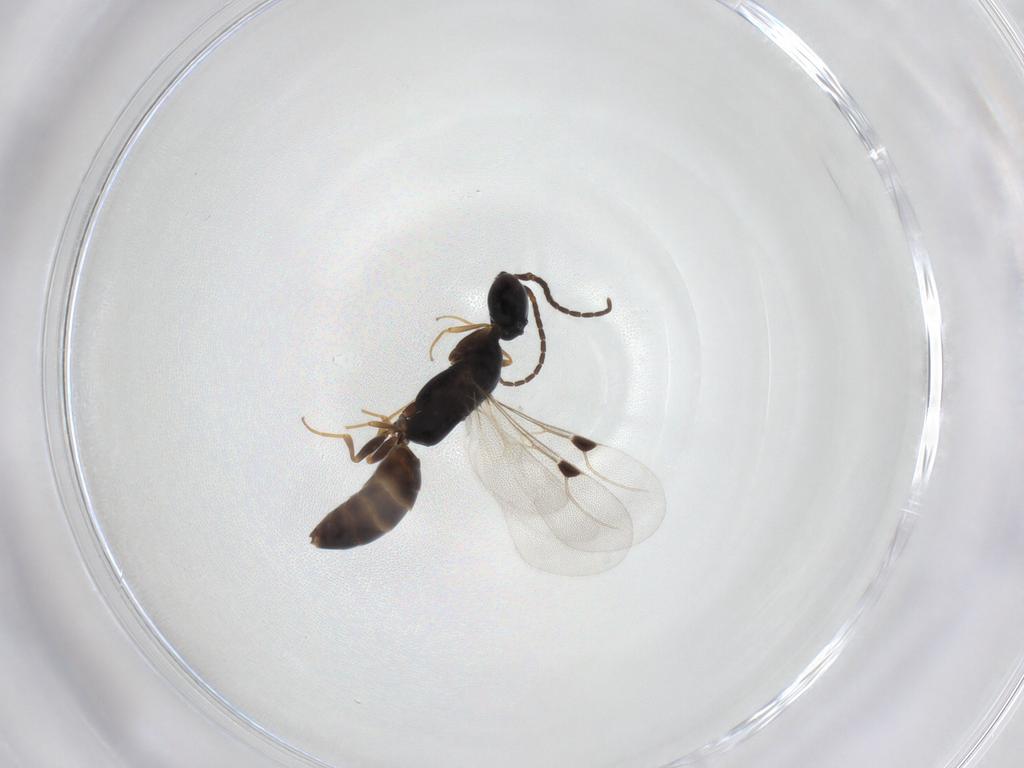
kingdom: Animalia
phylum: Arthropoda
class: Insecta
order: Hymenoptera
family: Bethylidae
